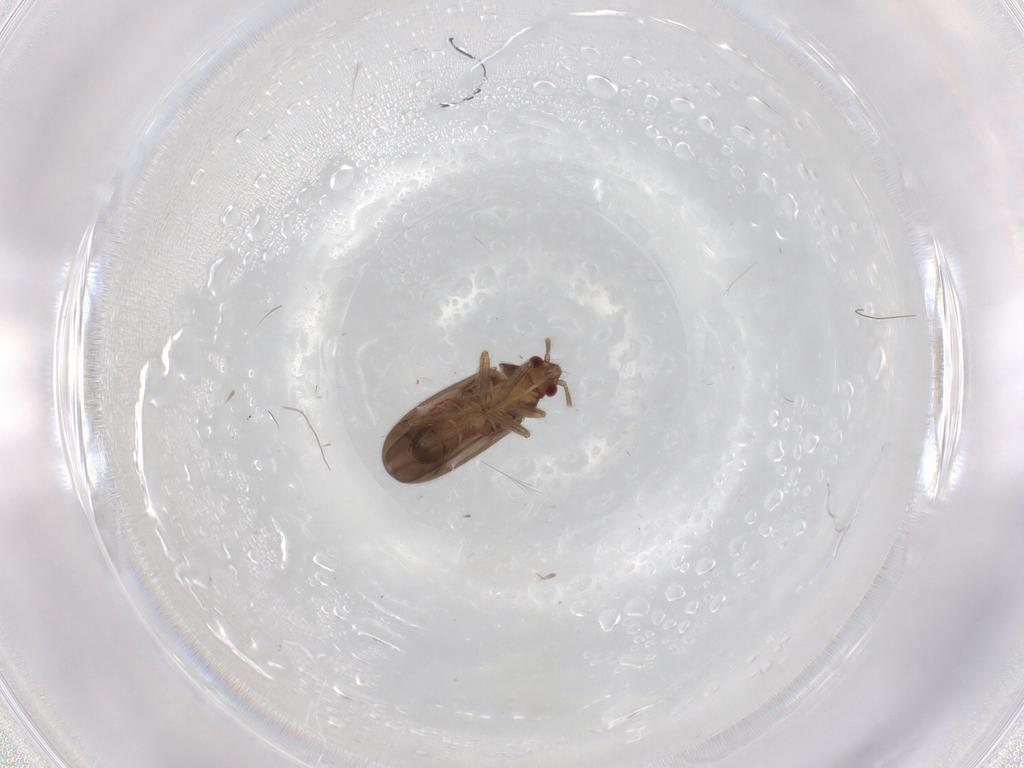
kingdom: Animalia
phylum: Arthropoda
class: Insecta
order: Hemiptera
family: Ceratocombidae
